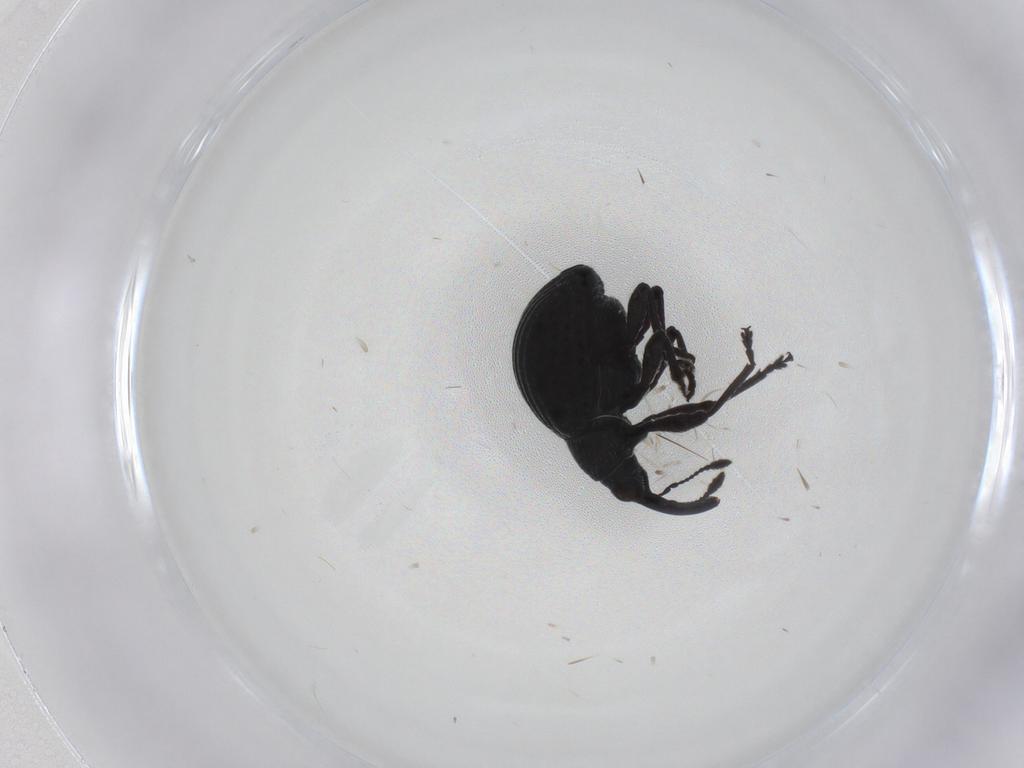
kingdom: Animalia
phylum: Arthropoda
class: Insecta
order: Coleoptera
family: Brentidae
